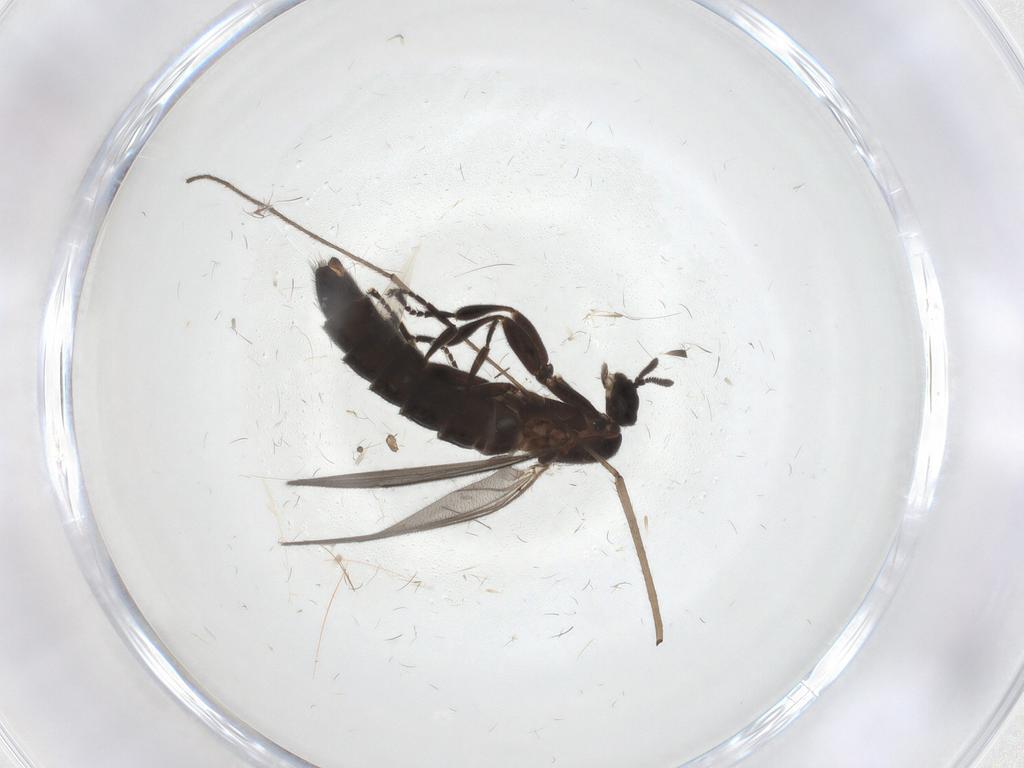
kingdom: Animalia
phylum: Arthropoda
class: Insecta
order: Diptera
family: Scatopsidae
